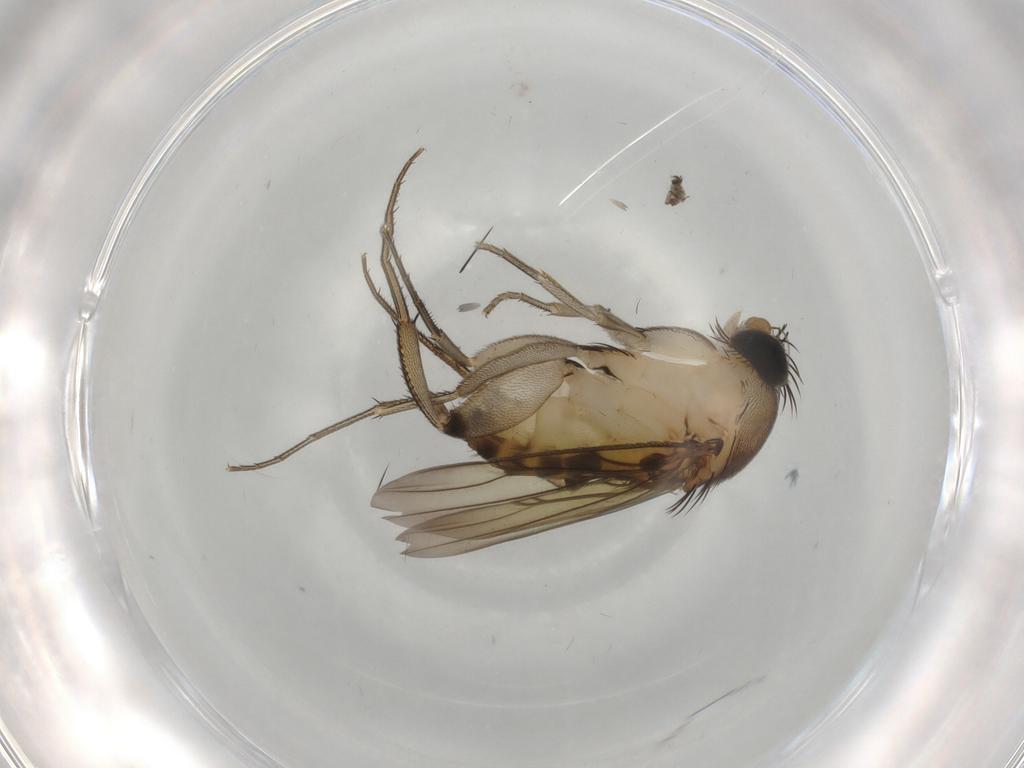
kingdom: Animalia
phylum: Arthropoda
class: Insecta
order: Diptera
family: Phoridae
